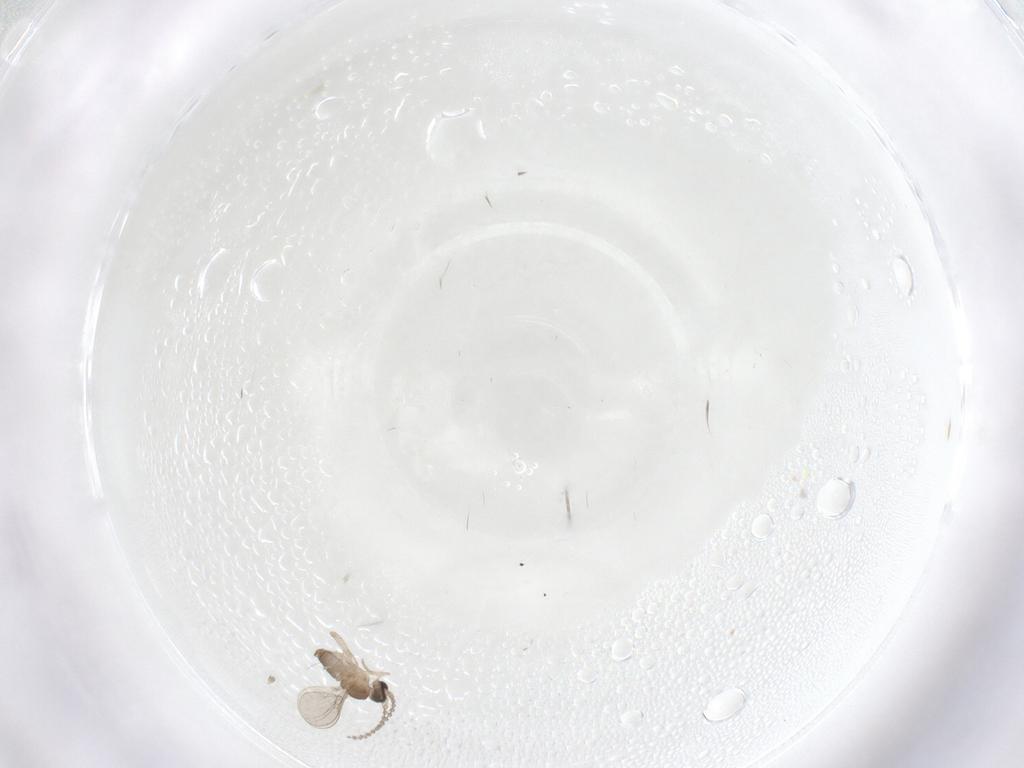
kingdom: Animalia
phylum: Arthropoda
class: Insecta
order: Diptera
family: Cecidomyiidae
